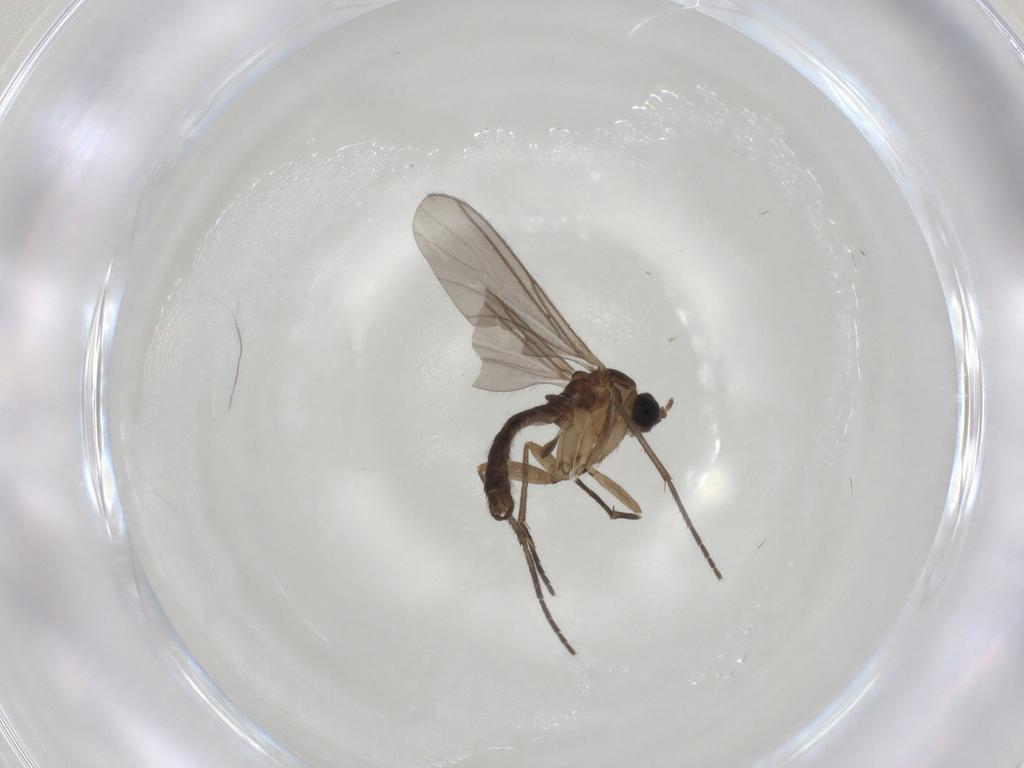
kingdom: Animalia
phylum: Arthropoda
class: Insecta
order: Diptera
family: Sciaridae
